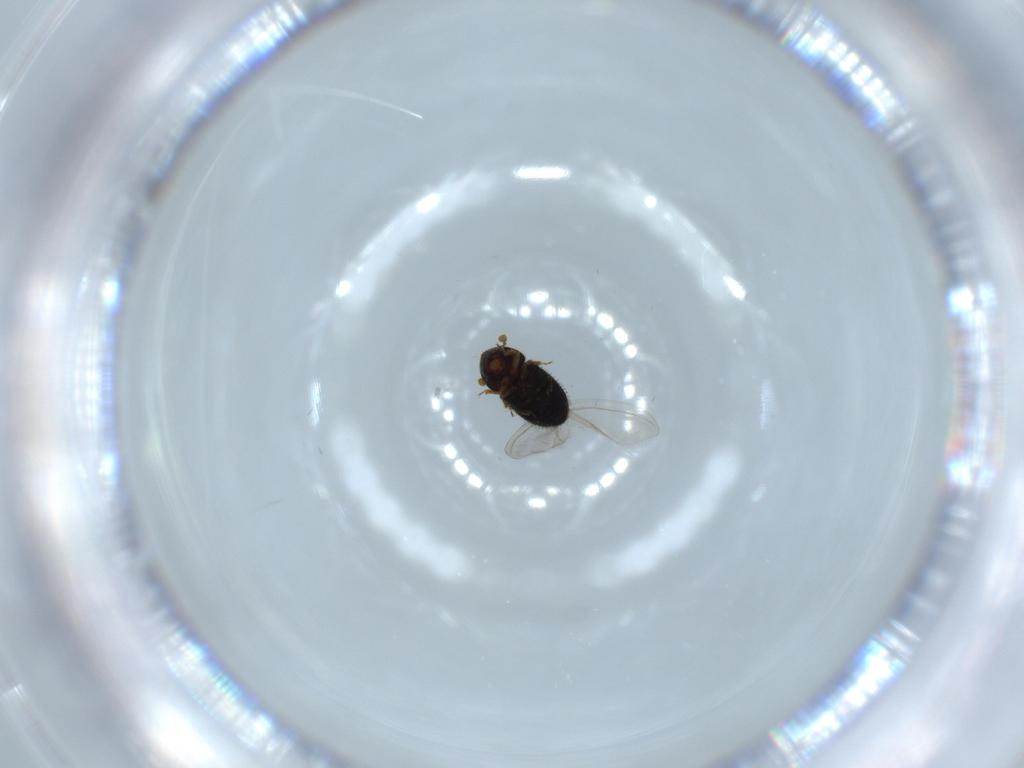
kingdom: Animalia
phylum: Arthropoda
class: Insecta
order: Coleoptera
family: Curculionidae
